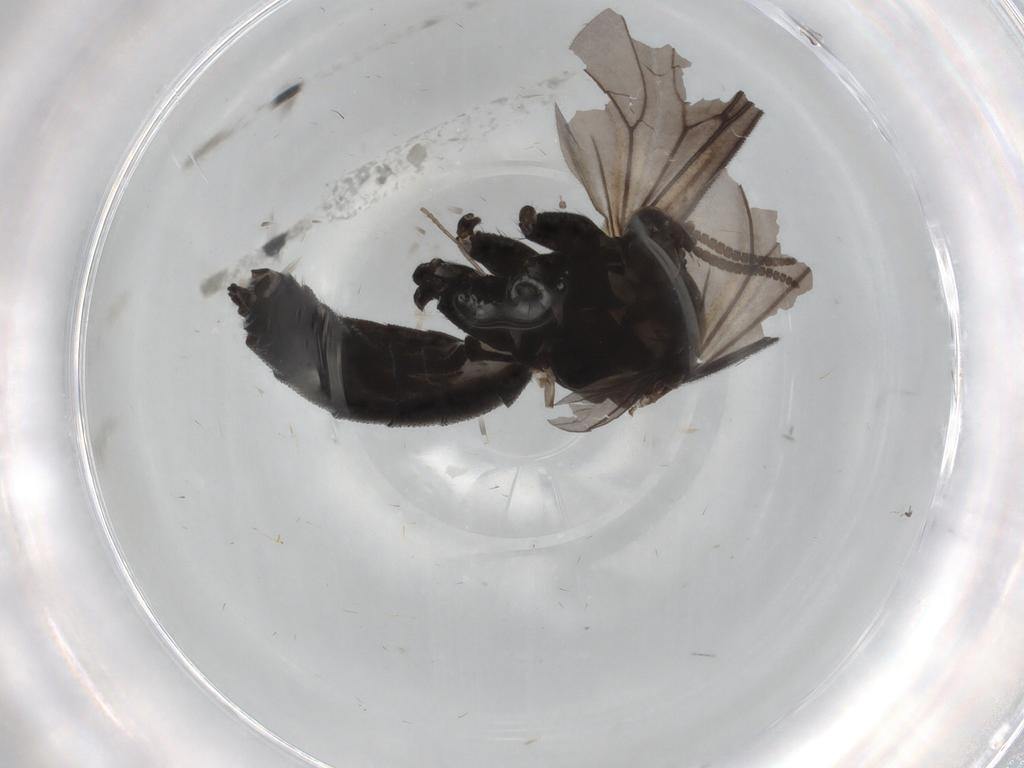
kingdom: Animalia
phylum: Arthropoda
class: Insecta
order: Diptera
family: Mycetophilidae
